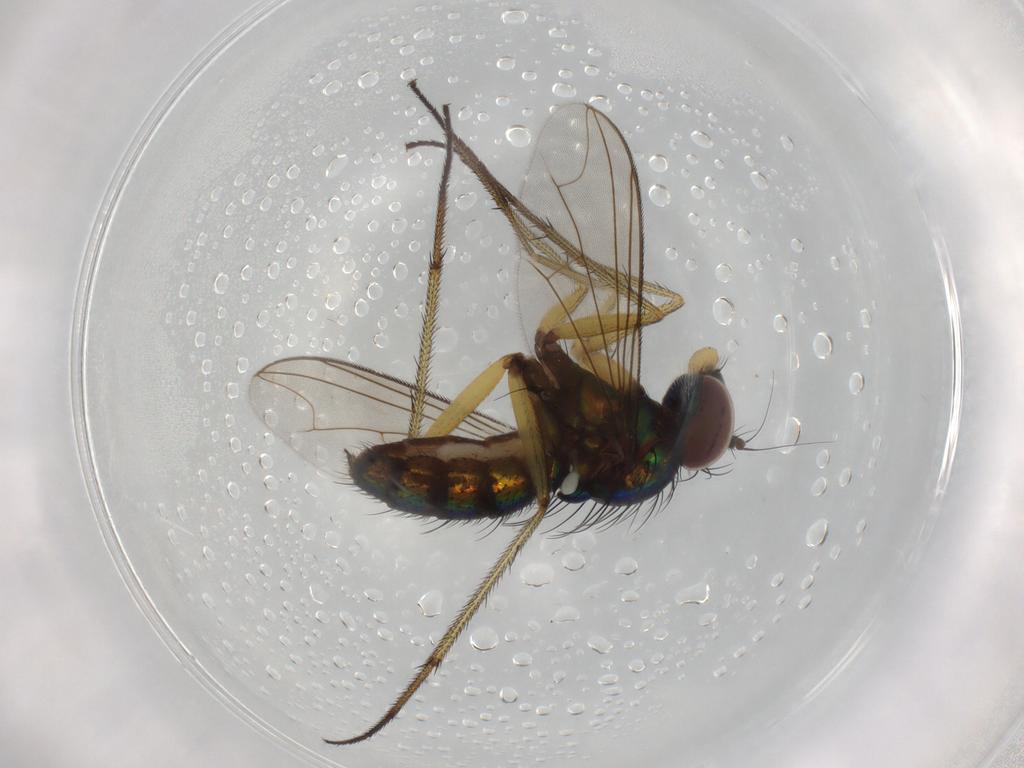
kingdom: Animalia
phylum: Arthropoda
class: Insecta
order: Diptera
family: Dolichopodidae
